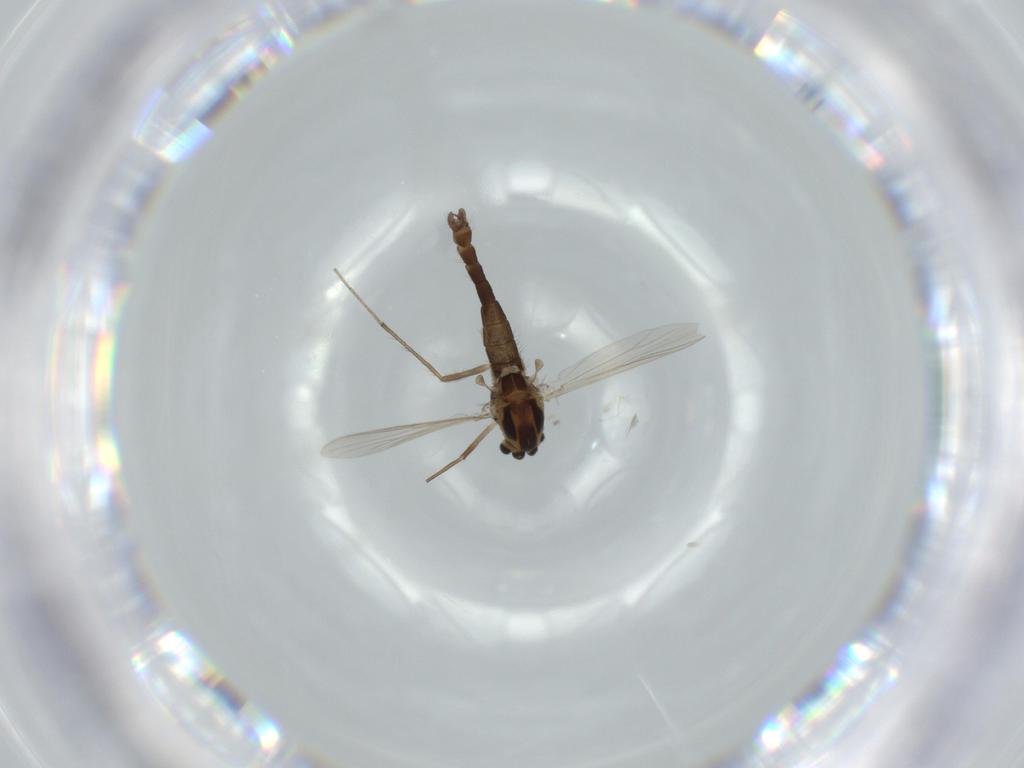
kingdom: Animalia
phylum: Arthropoda
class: Insecta
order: Diptera
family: Chironomidae
